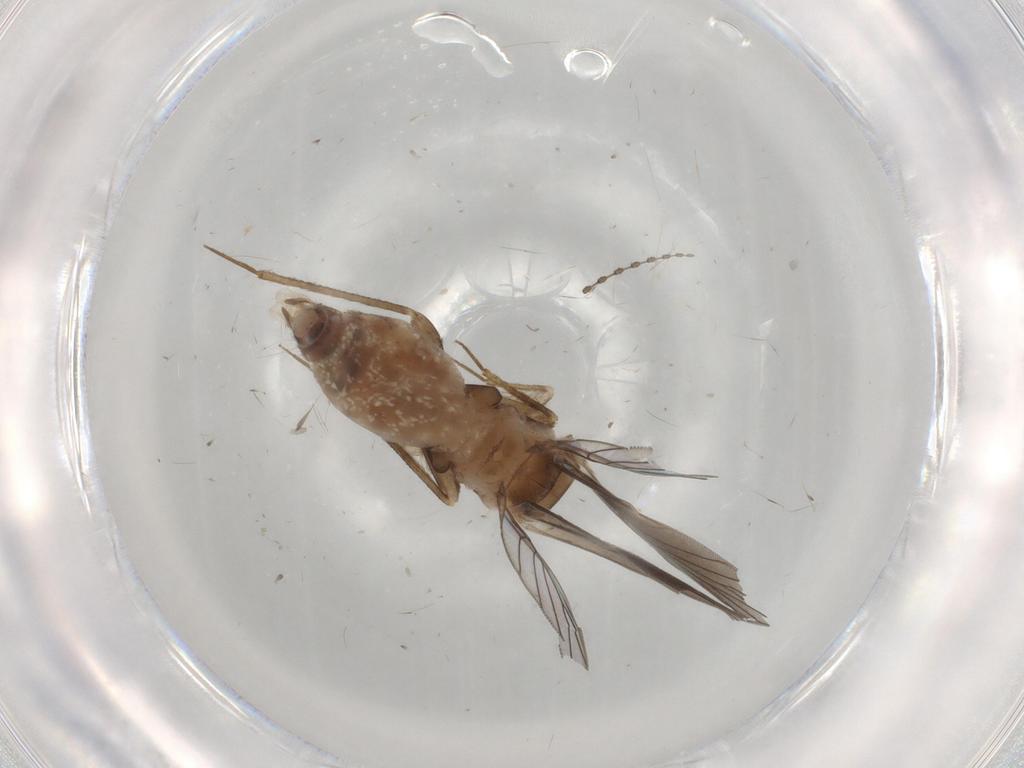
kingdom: Animalia
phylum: Arthropoda
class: Insecta
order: Psocodea
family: Lepidopsocidae
